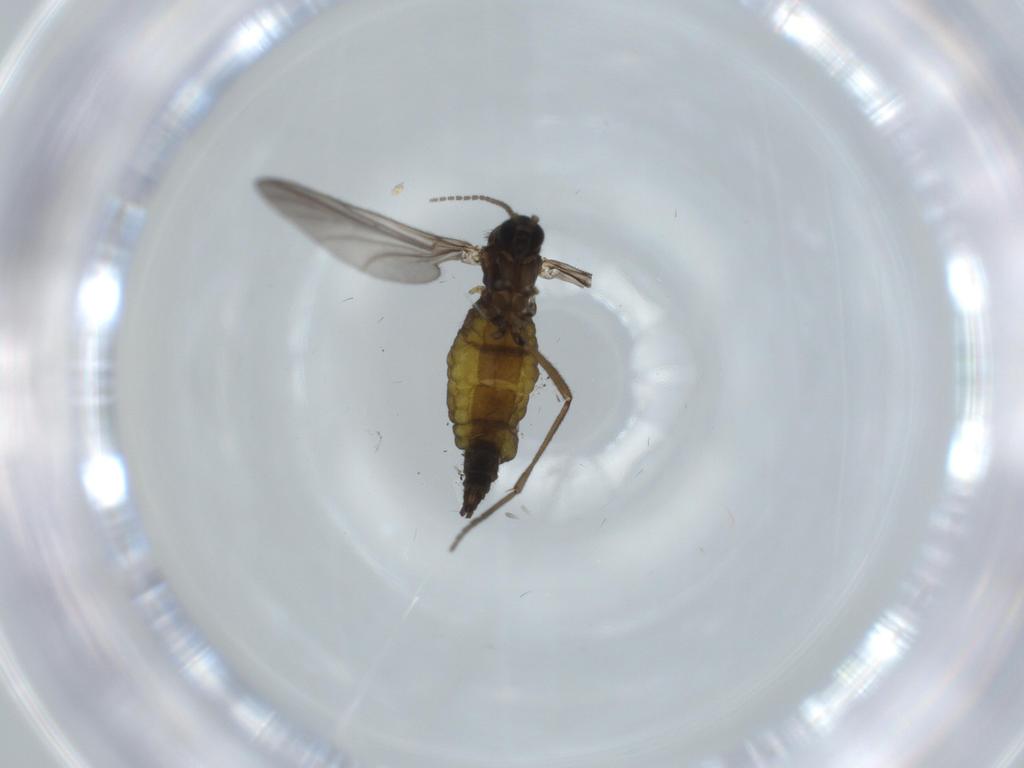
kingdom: Animalia
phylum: Arthropoda
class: Insecta
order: Diptera
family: Sciaridae
